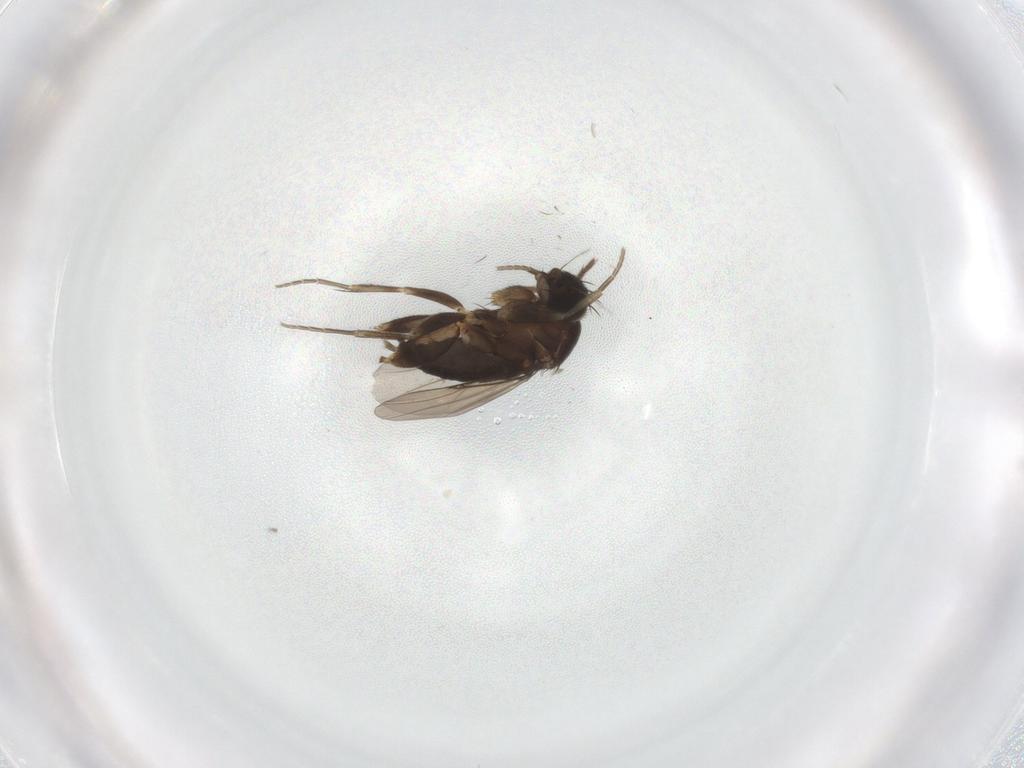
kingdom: Animalia
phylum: Arthropoda
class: Insecta
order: Diptera
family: Phoridae
